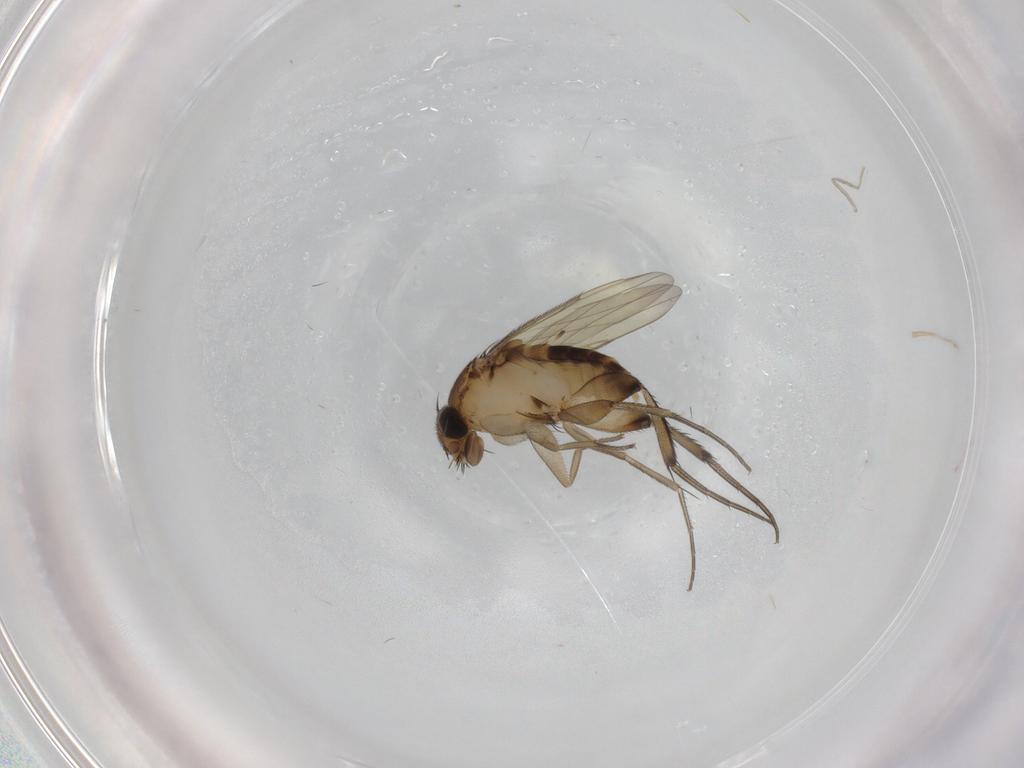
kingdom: Animalia
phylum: Arthropoda
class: Insecta
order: Diptera
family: Phoridae
